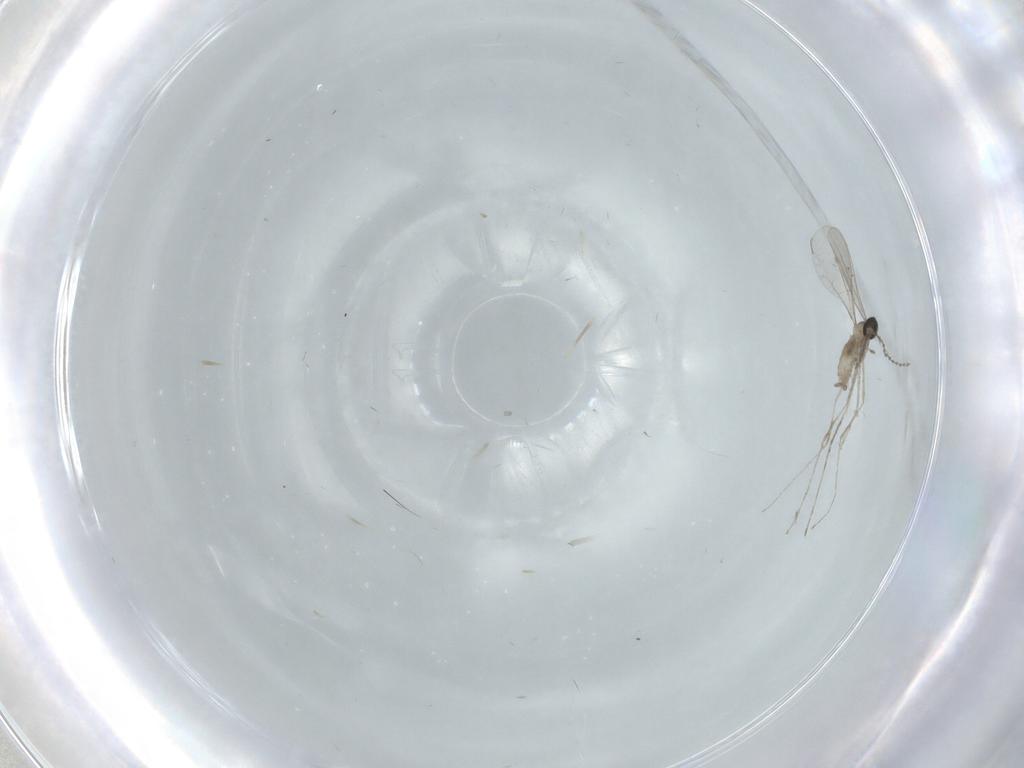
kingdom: Animalia
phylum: Arthropoda
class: Insecta
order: Diptera
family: Cecidomyiidae
